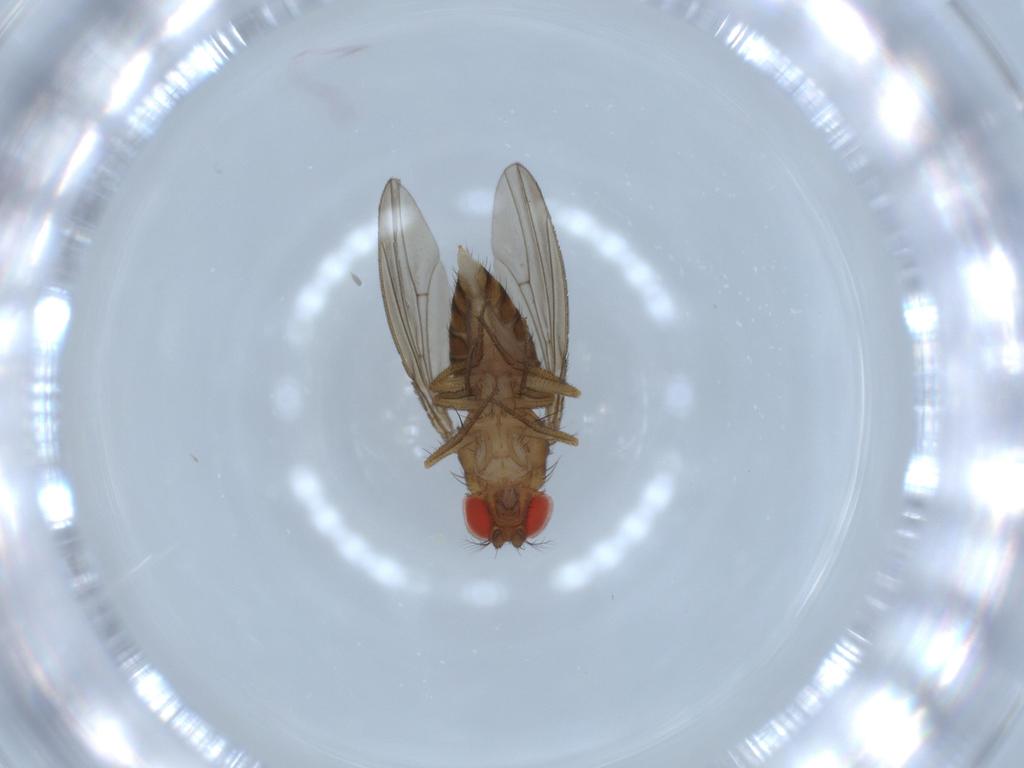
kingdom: Animalia
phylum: Arthropoda
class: Insecta
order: Diptera
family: Drosophilidae
